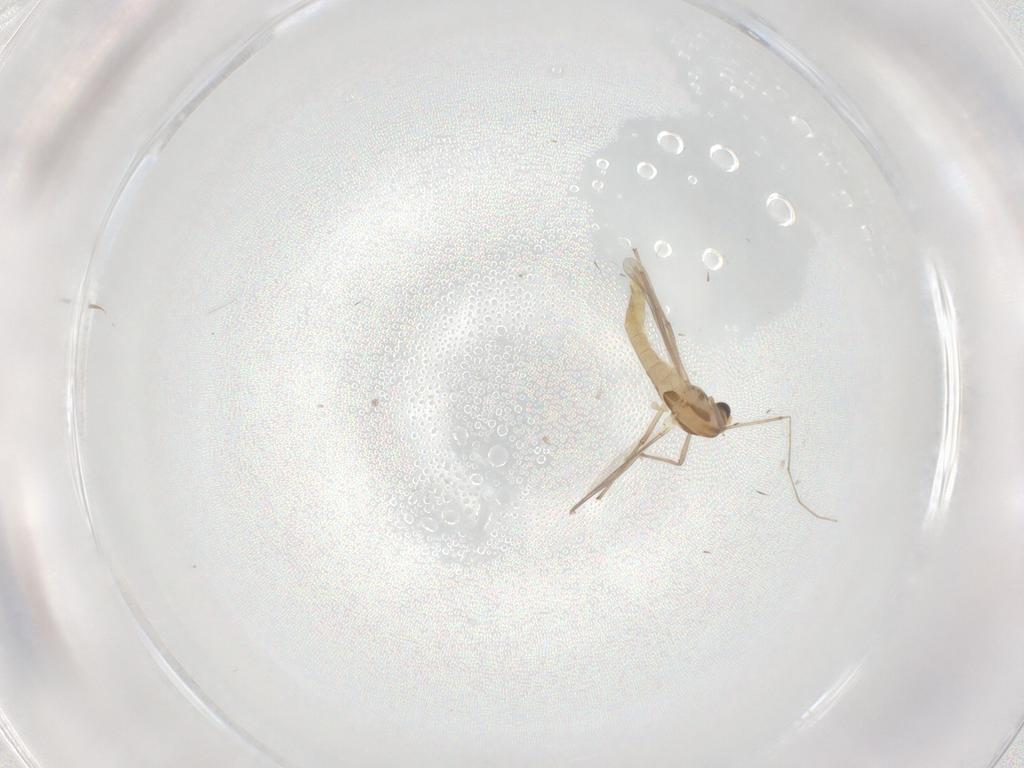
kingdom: Animalia
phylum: Arthropoda
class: Insecta
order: Diptera
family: Chironomidae
